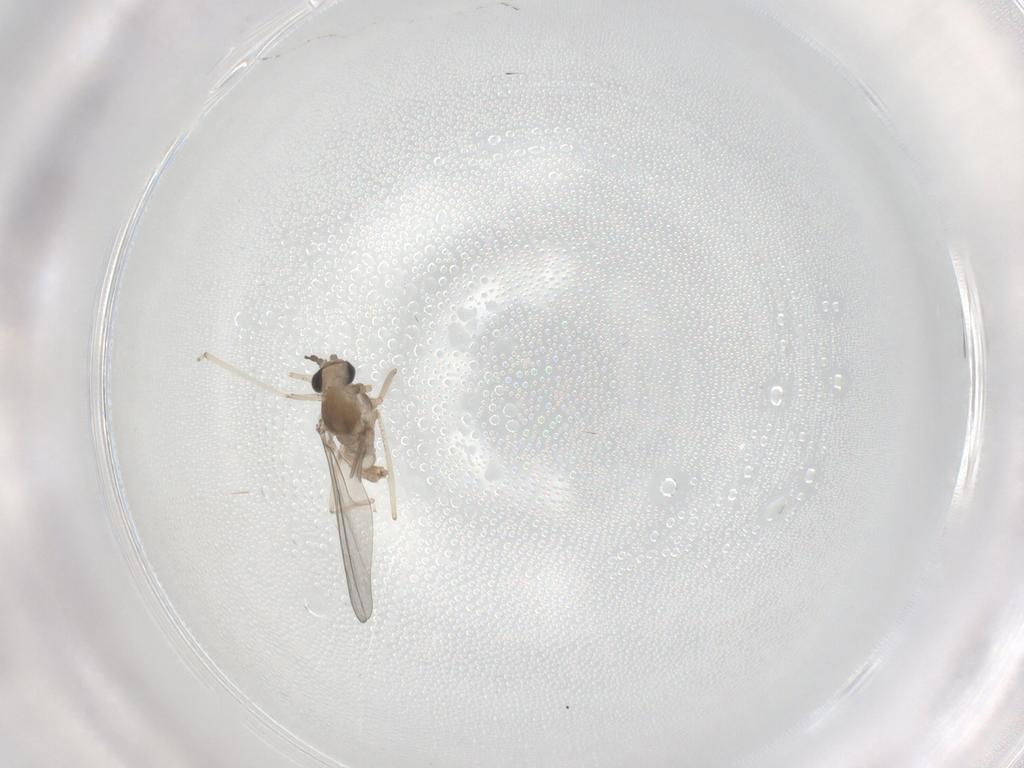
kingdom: Animalia
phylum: Arthropoda
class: Insecta
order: Diptera
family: Cecidomyiidae
